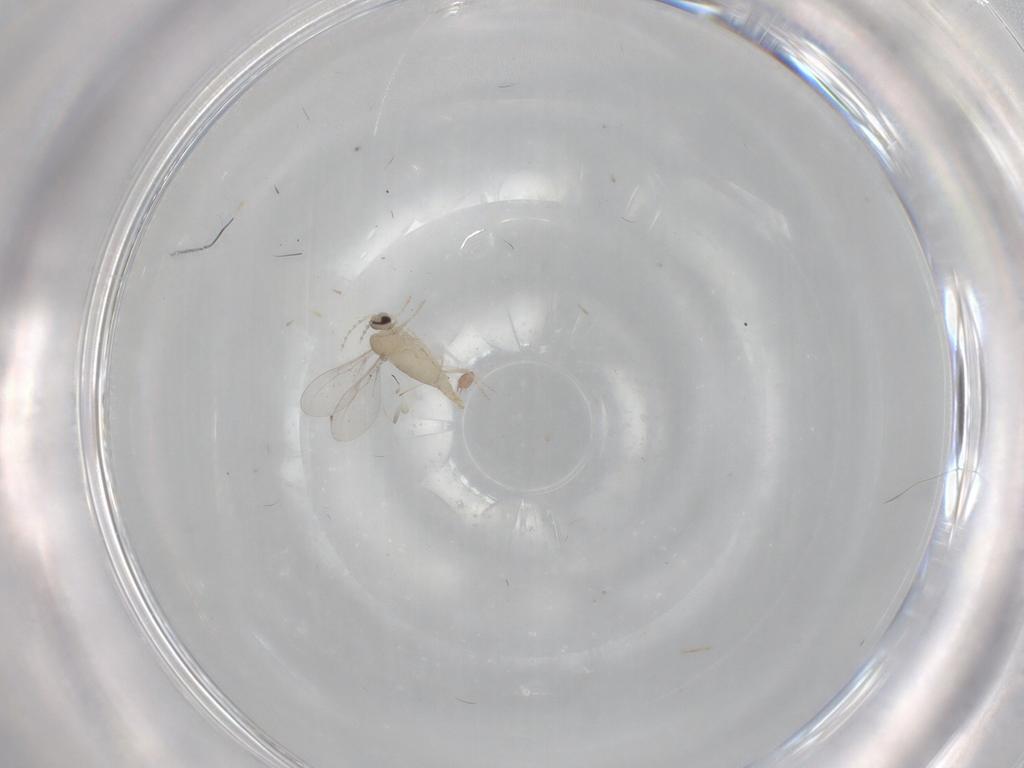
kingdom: Animalia
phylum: Arthropoda
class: Insecta
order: Diptera
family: Cecidomyiidae
